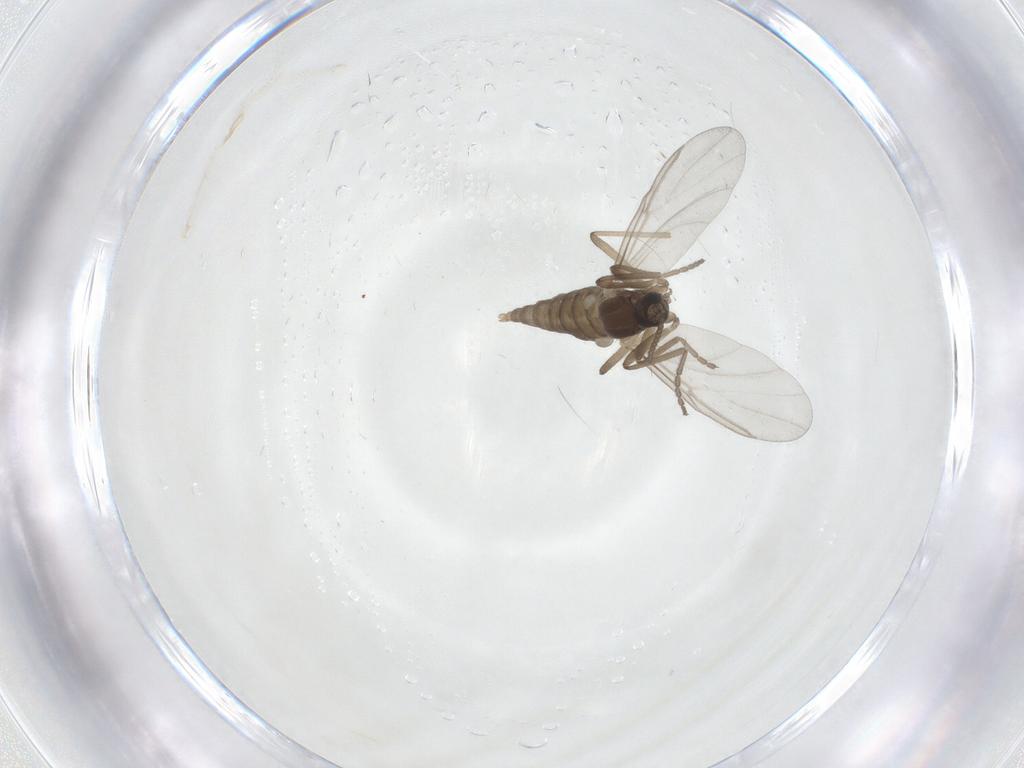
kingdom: Animalia
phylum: Arthropoda
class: Insecta
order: Diptera
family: Cecidomyiidae
